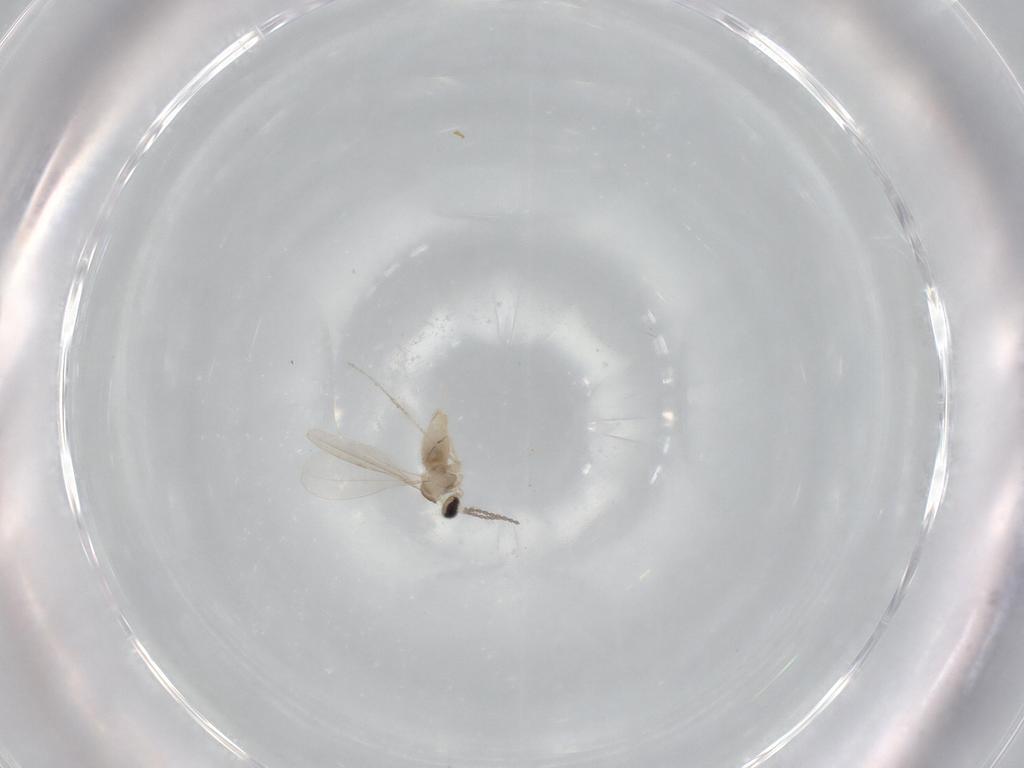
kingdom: Animalia
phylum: Arthropoda
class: Insecta
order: Diptera
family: Cecidomyiidae
